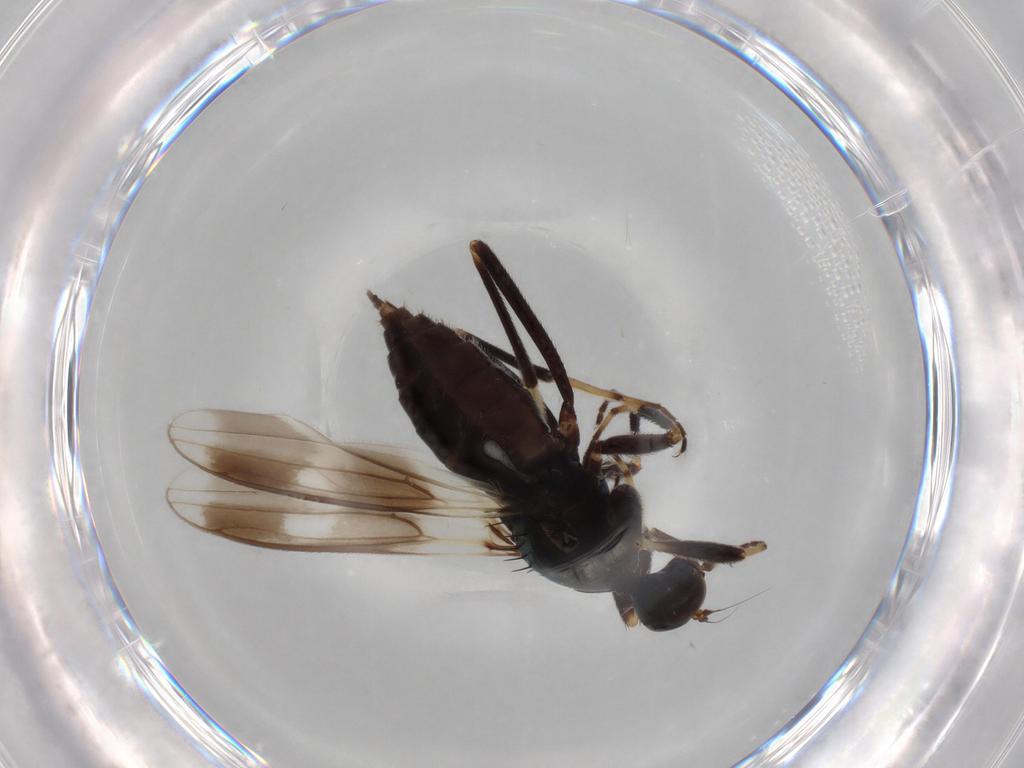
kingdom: Animalia
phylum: Arthropoda
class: Insecta
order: Diptera
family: Hybotidae
